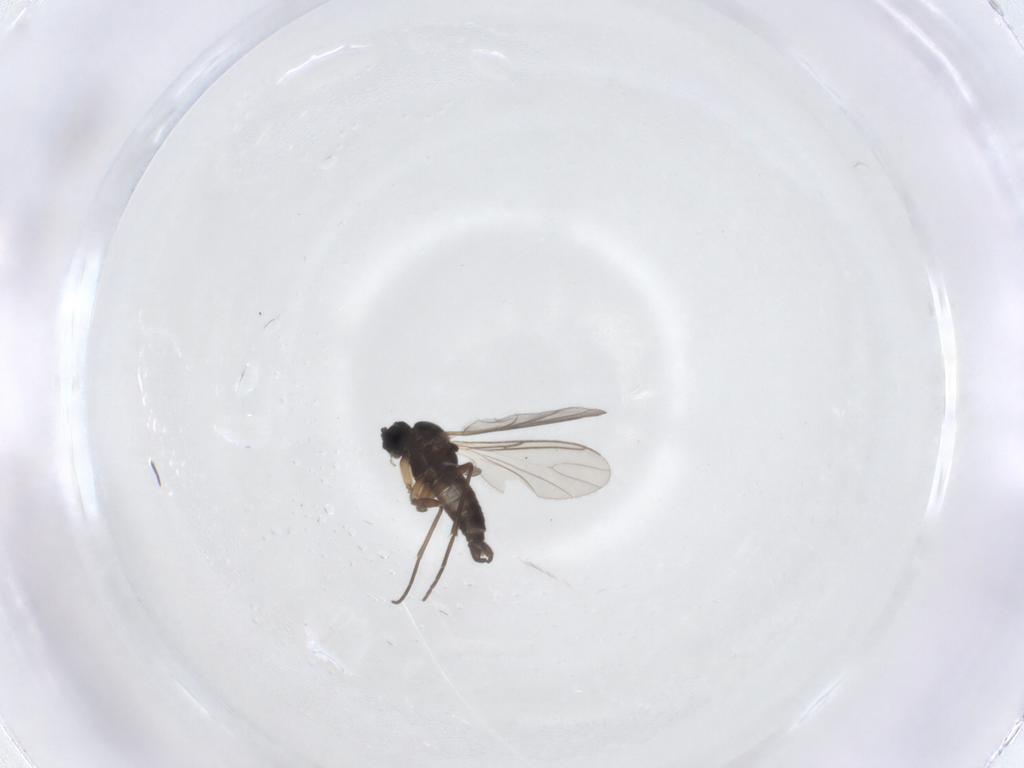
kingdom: Animalia
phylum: Arthropoda
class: Insecta
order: Diptera
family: Sciaridae
